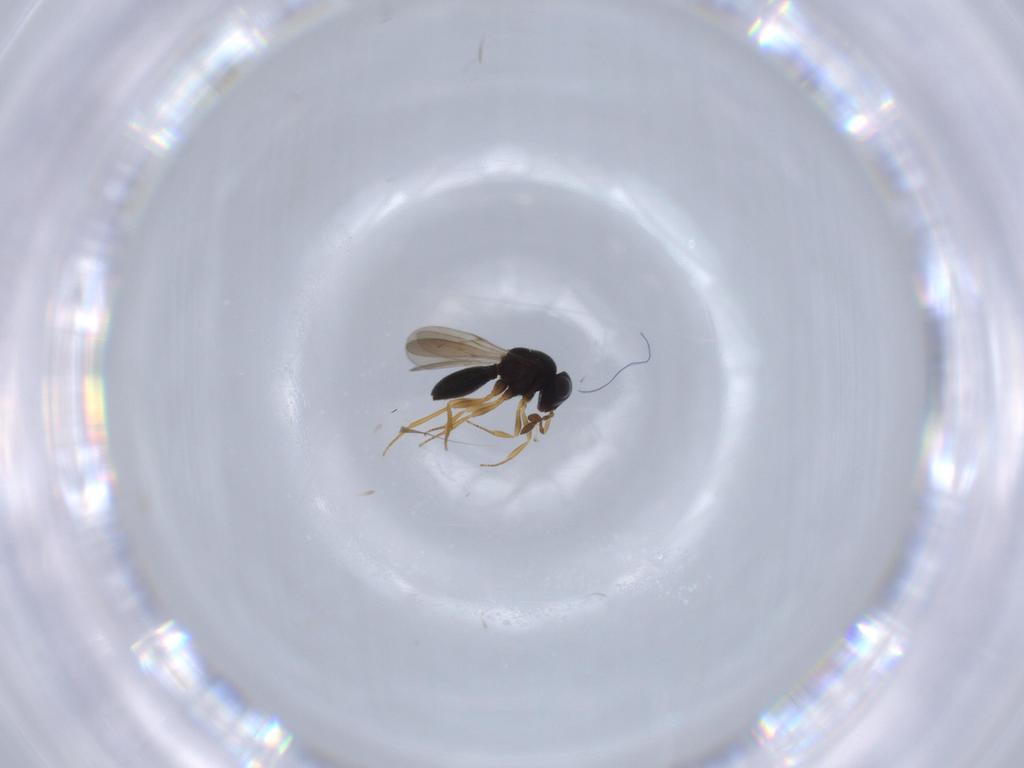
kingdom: Animalia
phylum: Arthropoda
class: Insecta
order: Hymenoptera
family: Scelionidae
